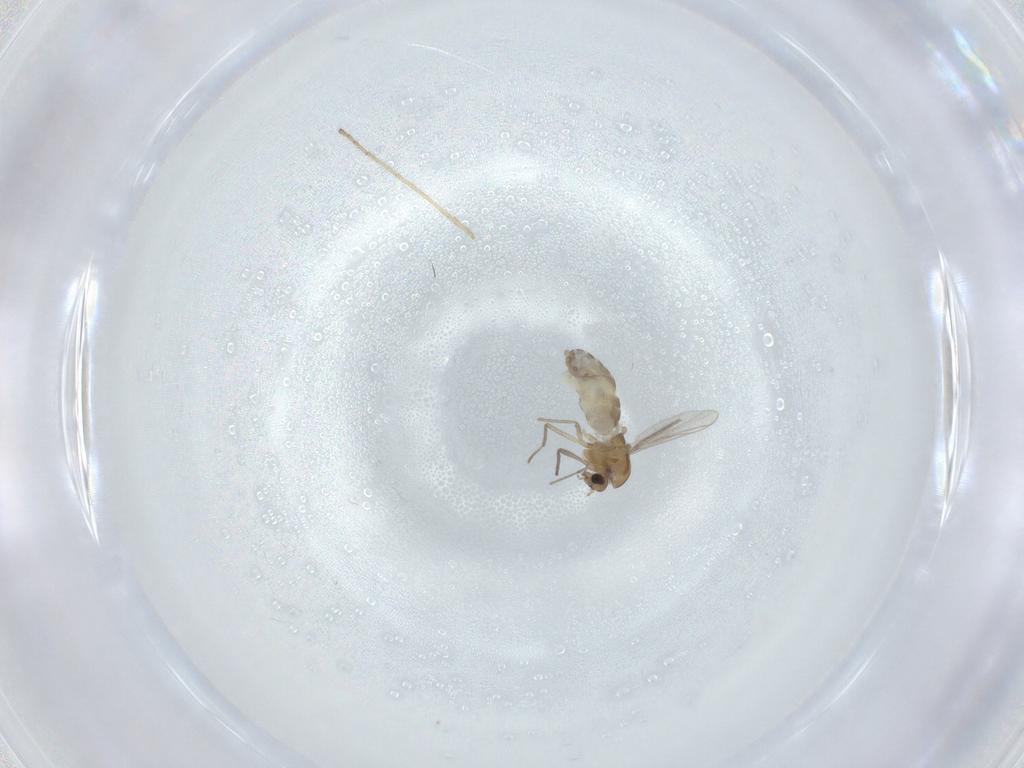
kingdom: Animalia
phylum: Arthropoda
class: Insecta
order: Diptera
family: Chironomidae
